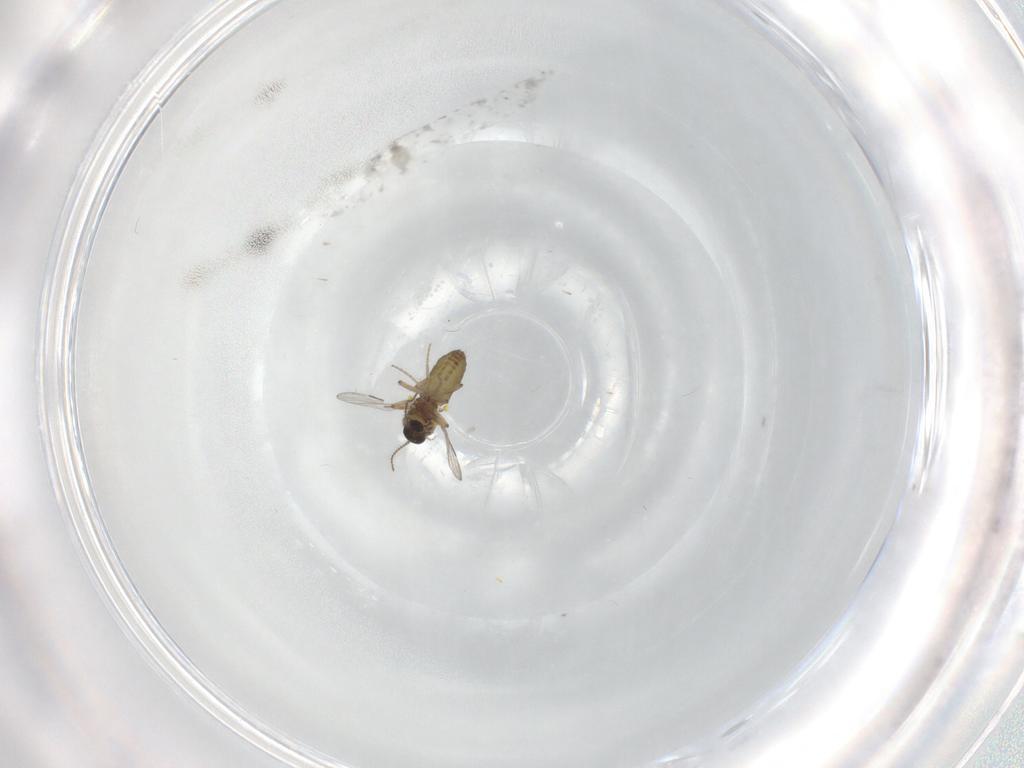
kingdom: Animalia
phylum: Arthropoda
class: Insecta
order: Diptera
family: Ceratopogonidae
